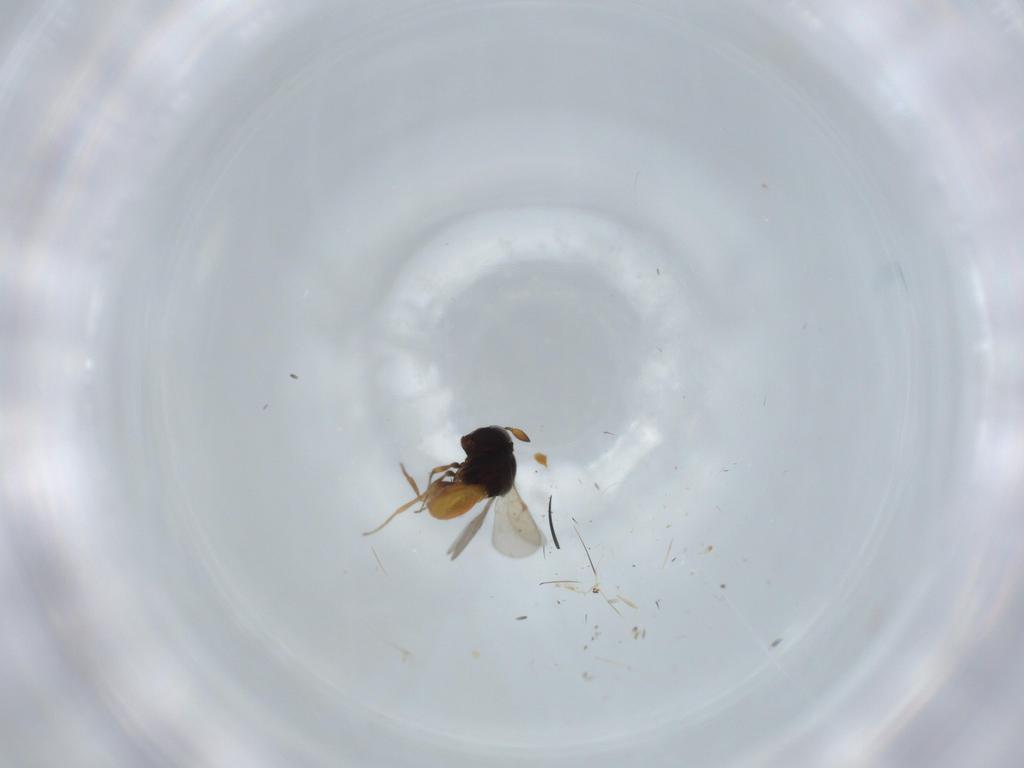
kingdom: Animalia
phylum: Arthropoda
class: Insecta
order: Hymenoptera
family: Scelionidae
